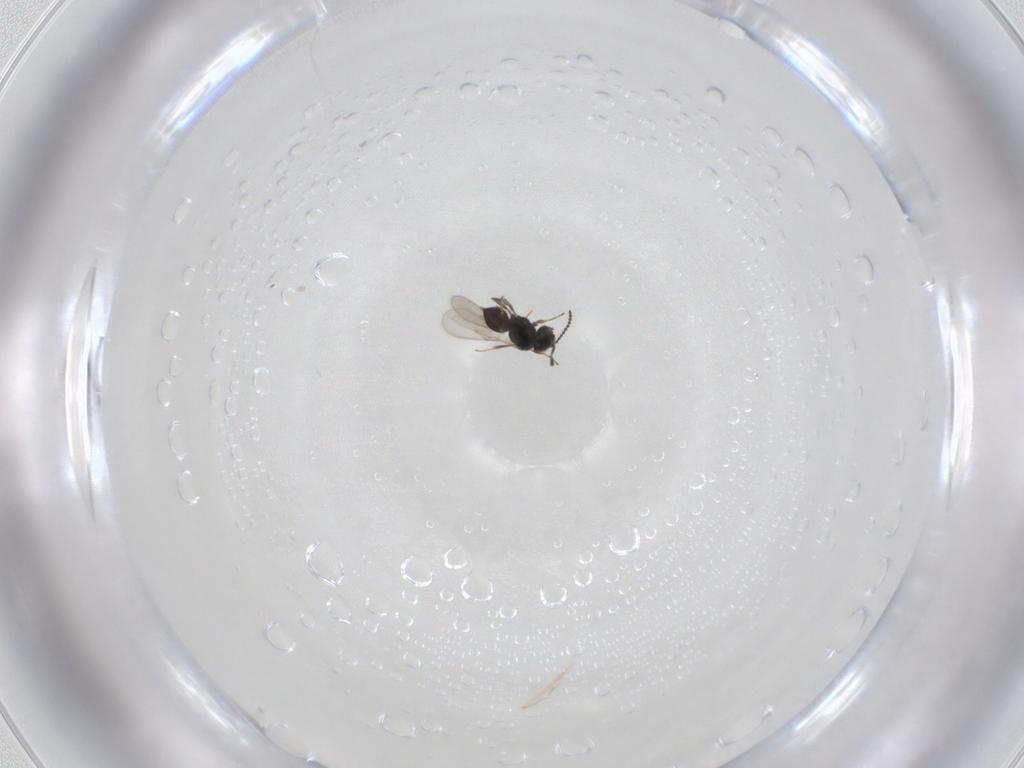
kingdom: Animalia
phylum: Arthropoda
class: Insecta
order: Hymenoptera
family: Scelionidae
